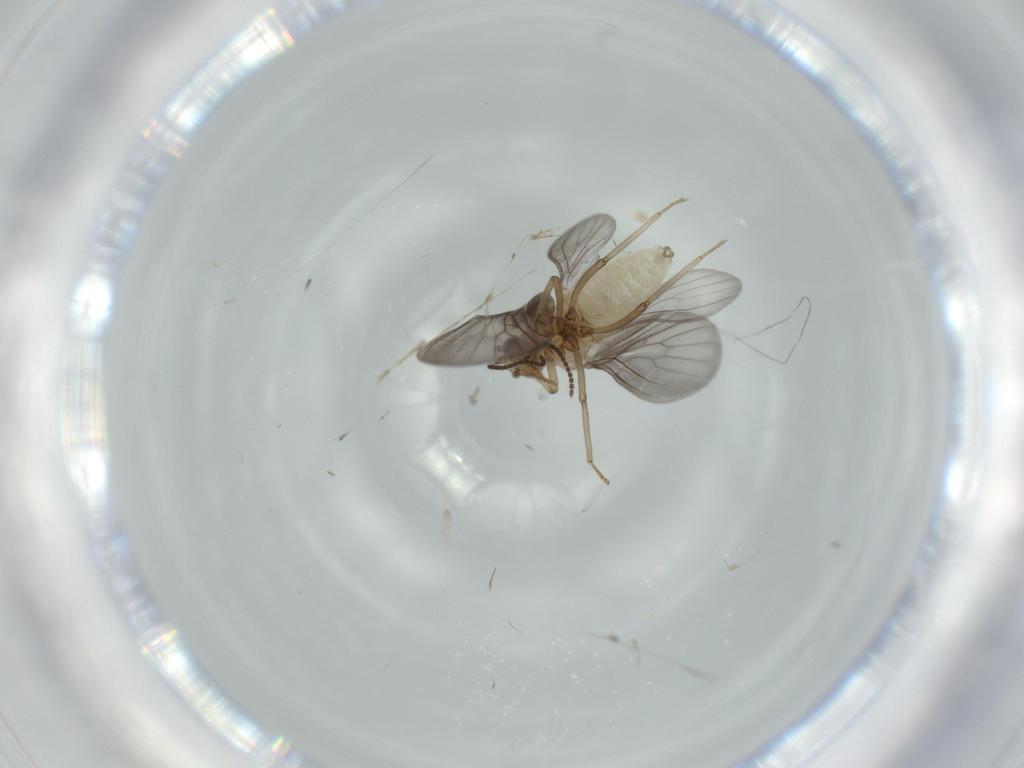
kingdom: Animalia
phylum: Arthropoda
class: Insecta
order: Neuroptera
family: Coniopterygidae
